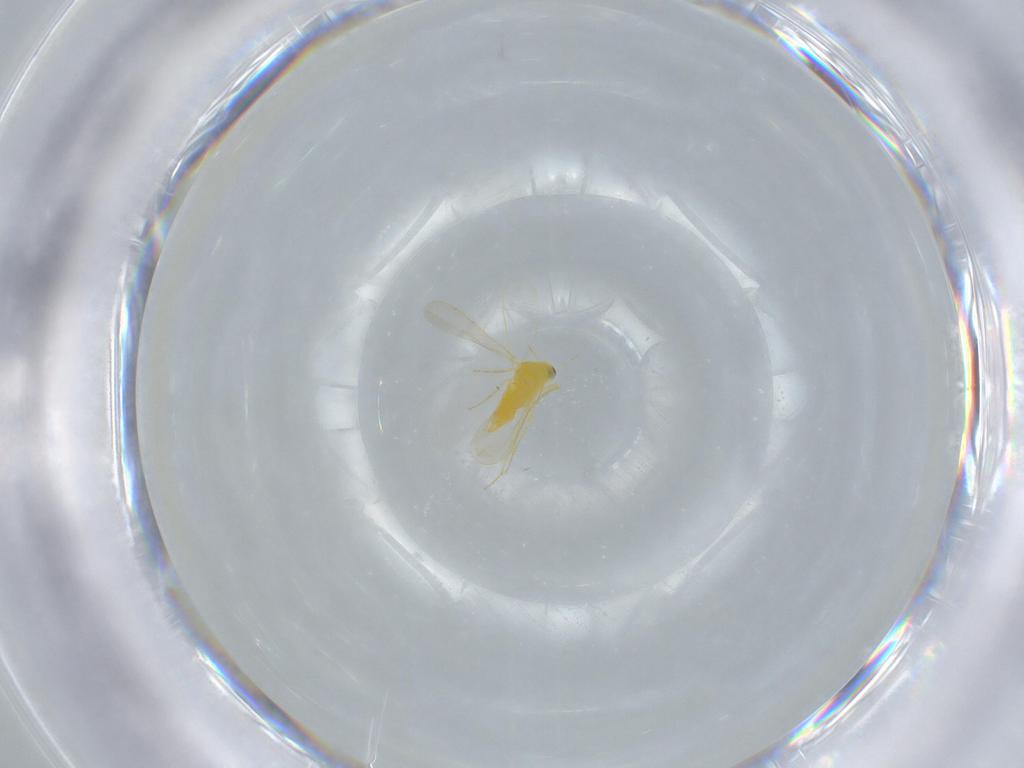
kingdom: Animalia
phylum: Arthropoda
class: Insecta
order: Hemiptera
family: Aleyrodidae
